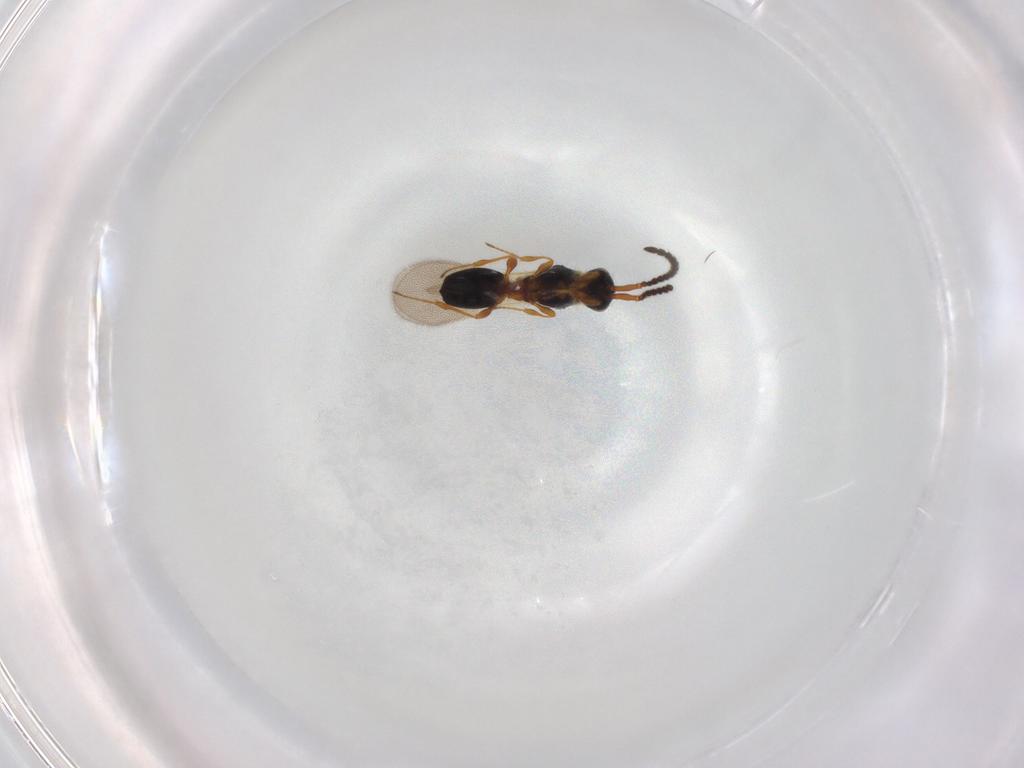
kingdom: Animalia
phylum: Arthropoda
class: Insecta
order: Hymenoptera
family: Diapriidae
